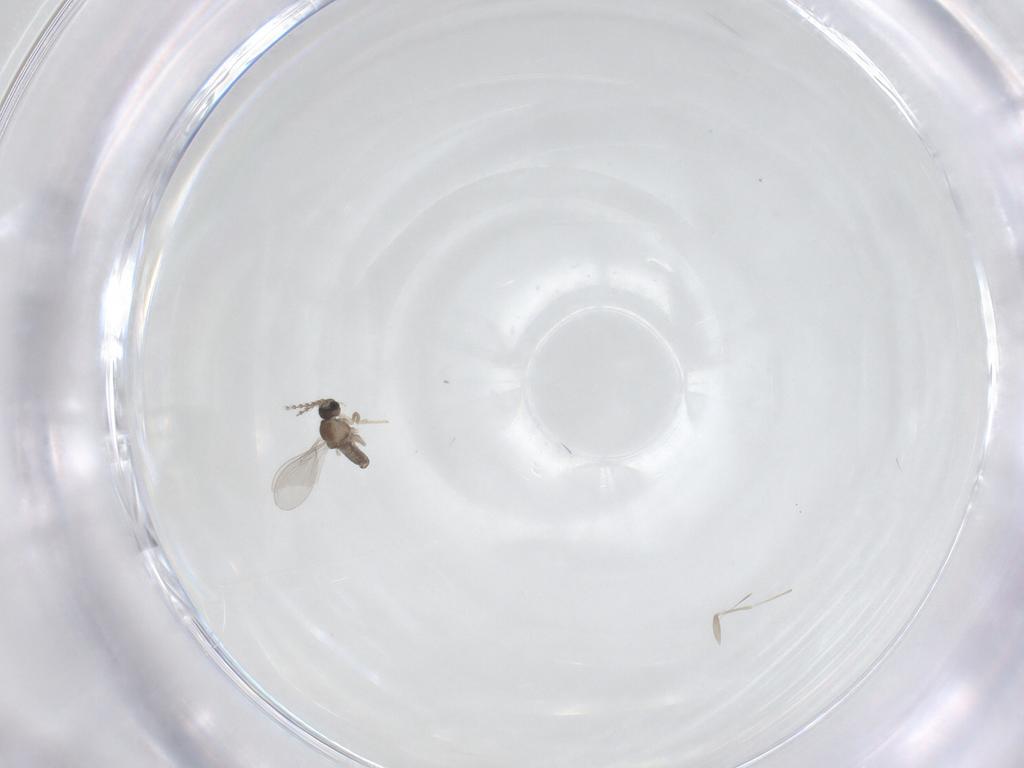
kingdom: Animalia
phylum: Arthropoda
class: Insecta
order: Diptera
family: Cecidomyiidae
